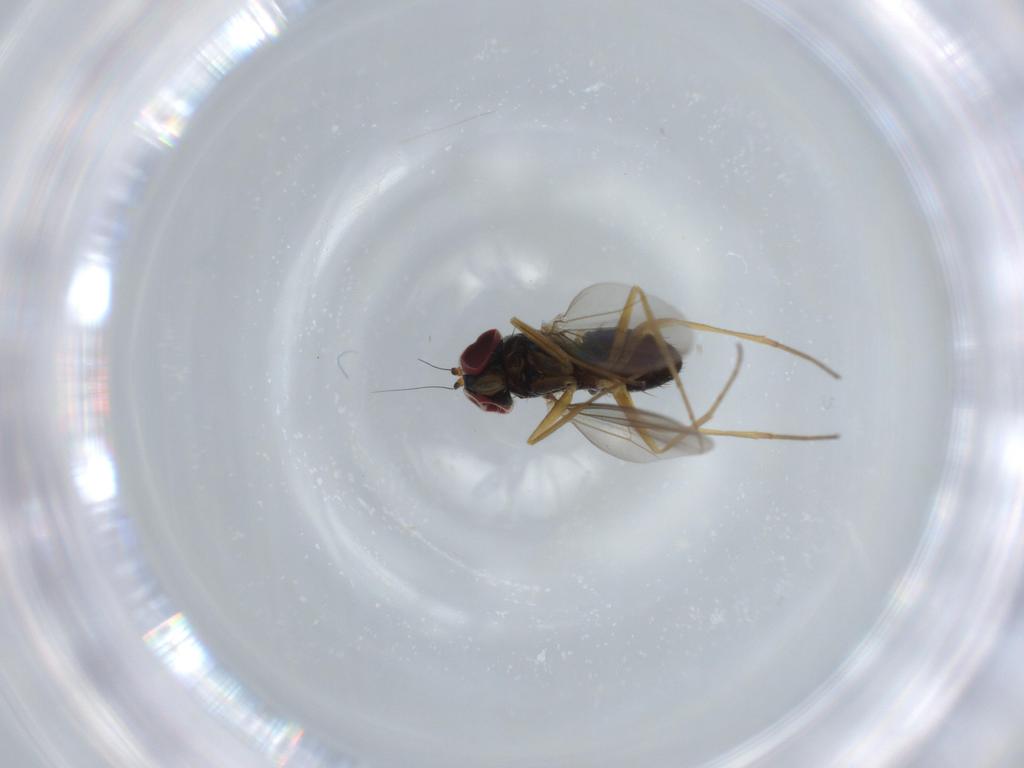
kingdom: Animalia
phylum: Arthropoda
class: Insecta
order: Diptera
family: Dolichopodidae
